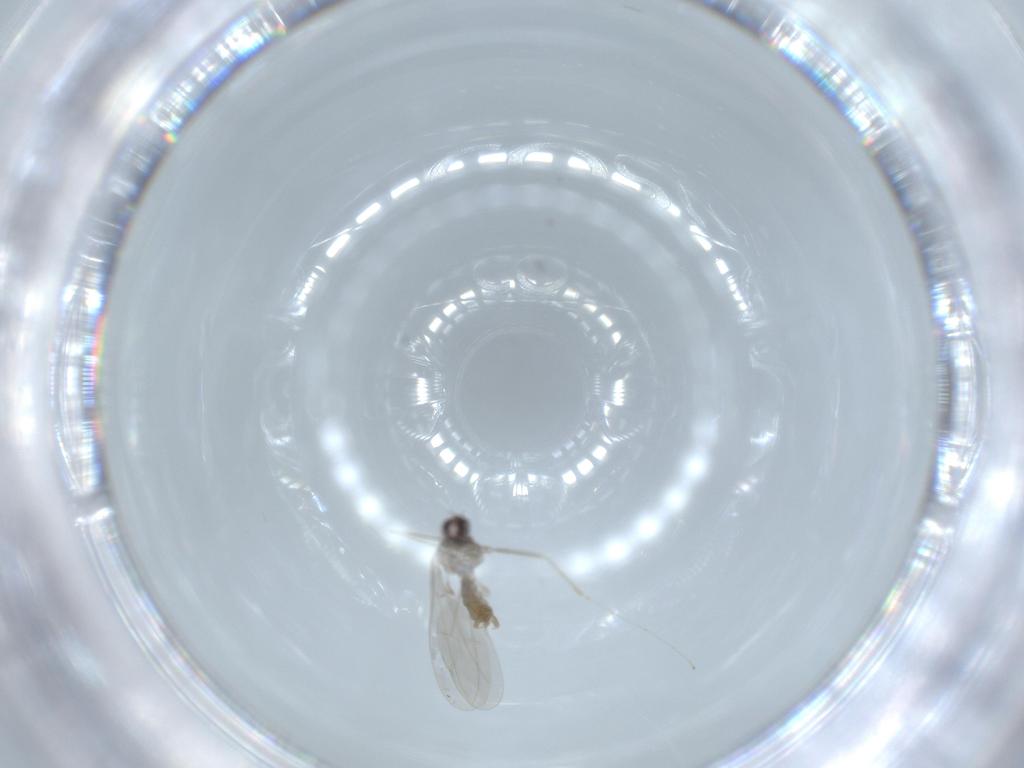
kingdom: Animalia
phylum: Arthropoda
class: Insecta
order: Diptera
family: Cecidomyiidae
